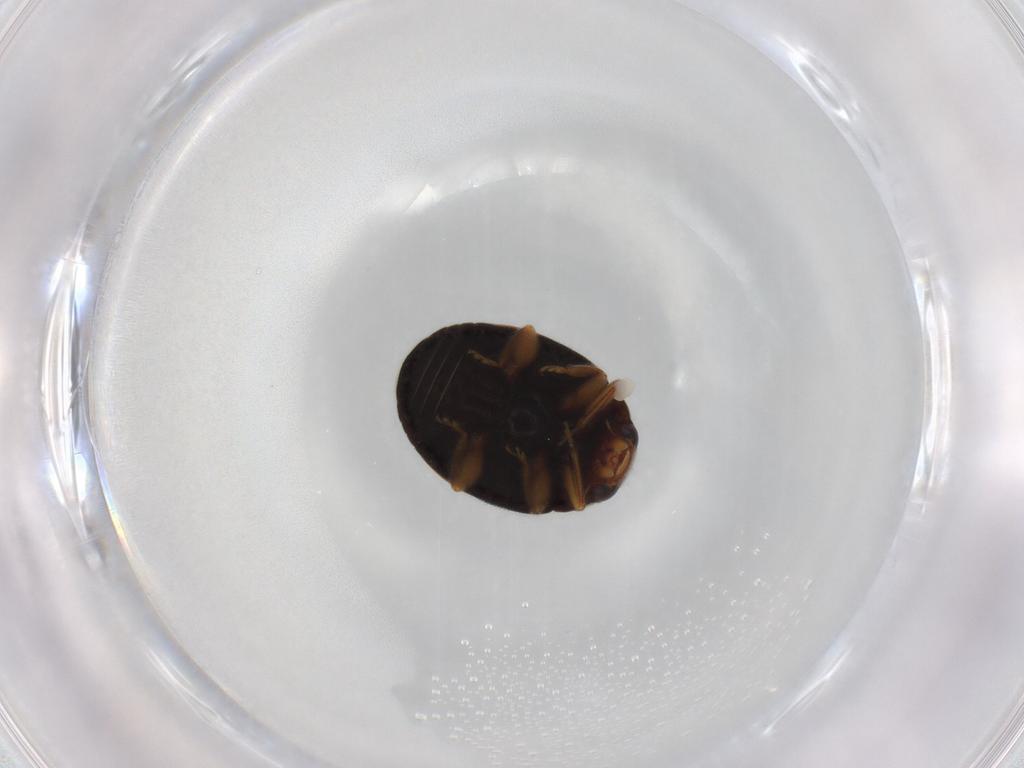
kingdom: Animalia
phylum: Arthropoda
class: Insecta
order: Coleoptera
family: Coccinellidae
